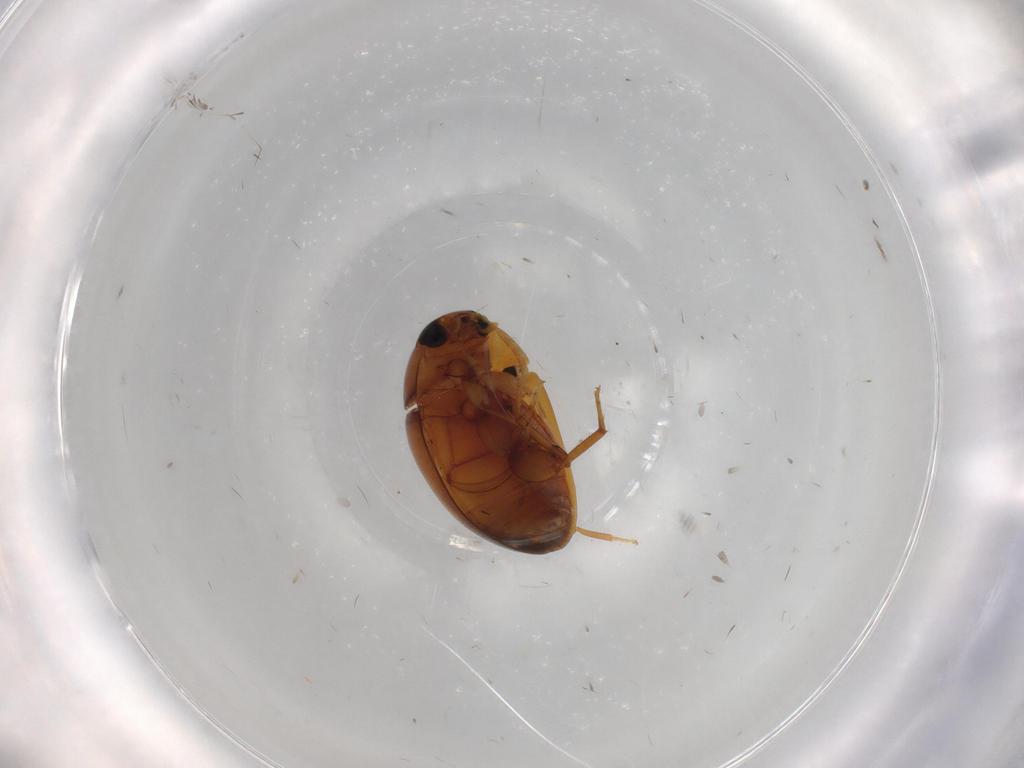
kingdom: Animalia
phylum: Arthropoda
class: Insecta
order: Coleoptera
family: Phalacridae
